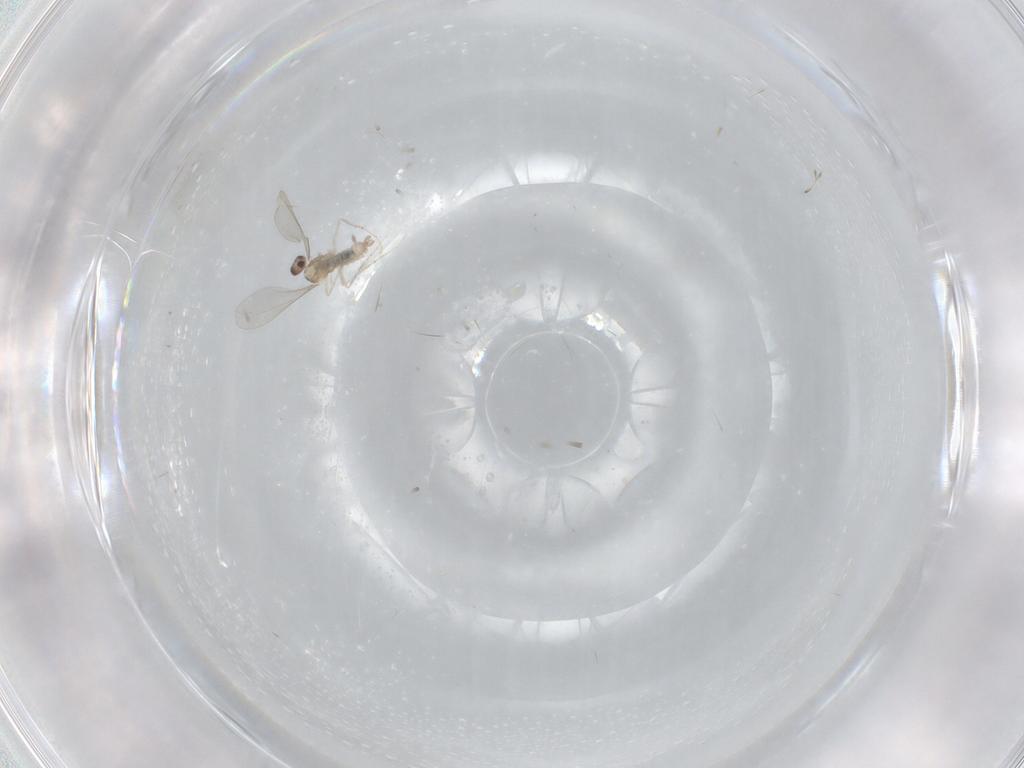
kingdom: Animalia
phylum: Arthropoda
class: Insecta
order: Diptera
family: Cecidomyiidae
